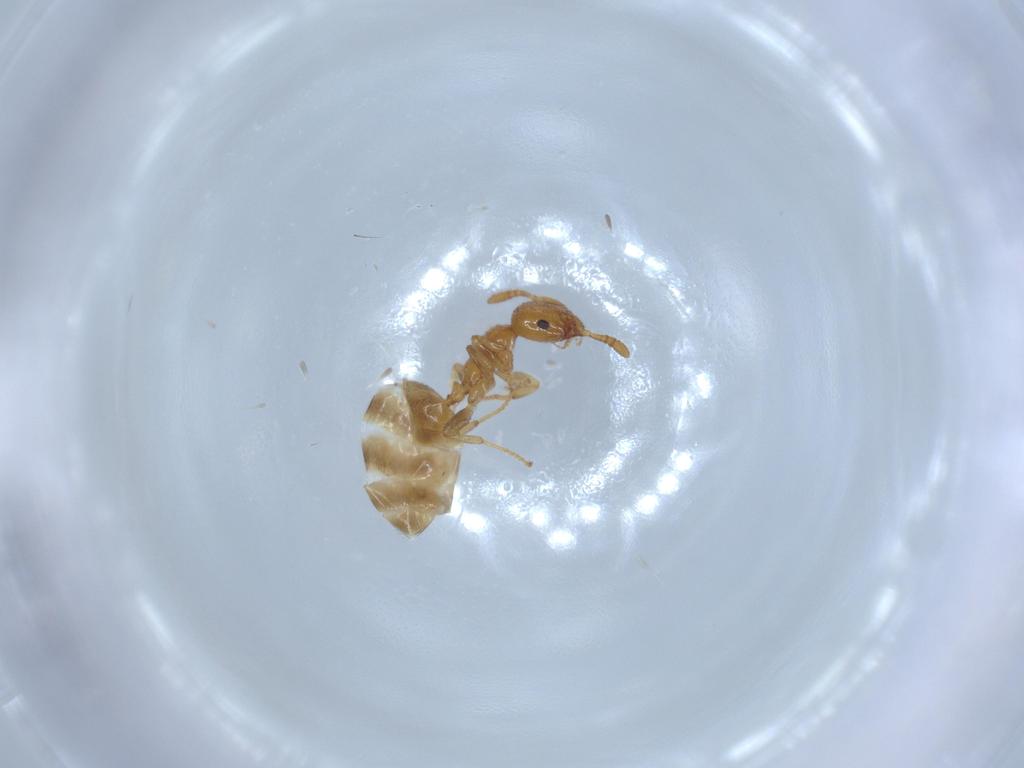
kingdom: Animalia
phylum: Arthropoda
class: Insecta
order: Hymenoptera
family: Formicidae
